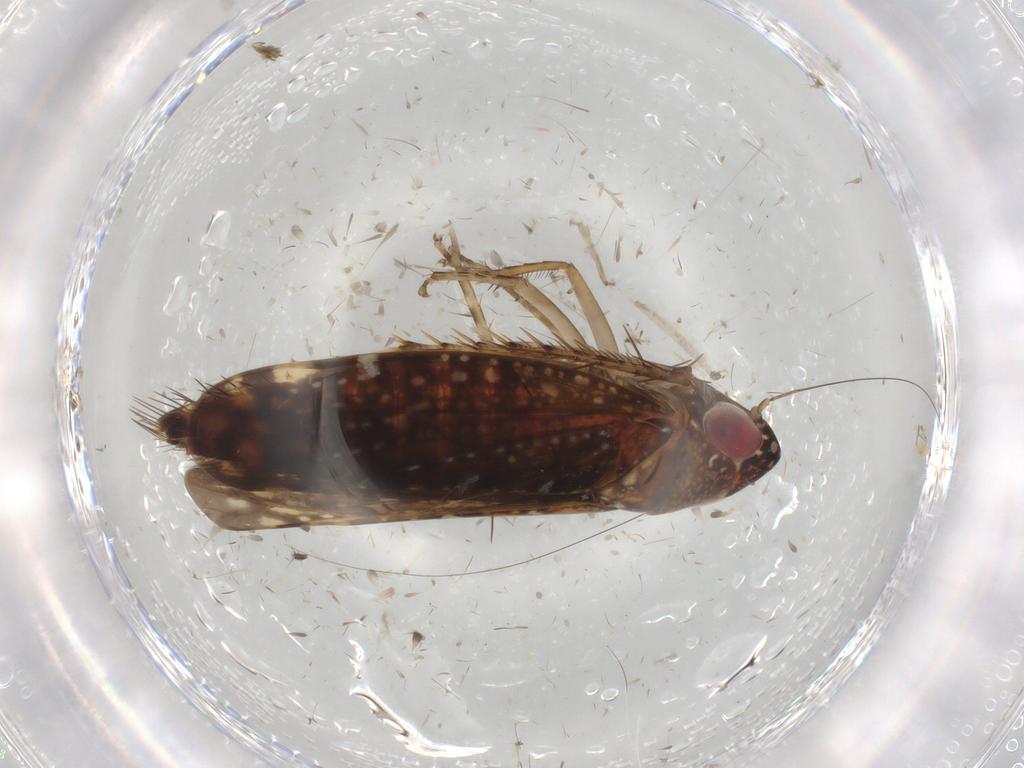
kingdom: Animalia
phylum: Arthropoda
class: Insecta
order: Hemiptera
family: Cicadellidae
